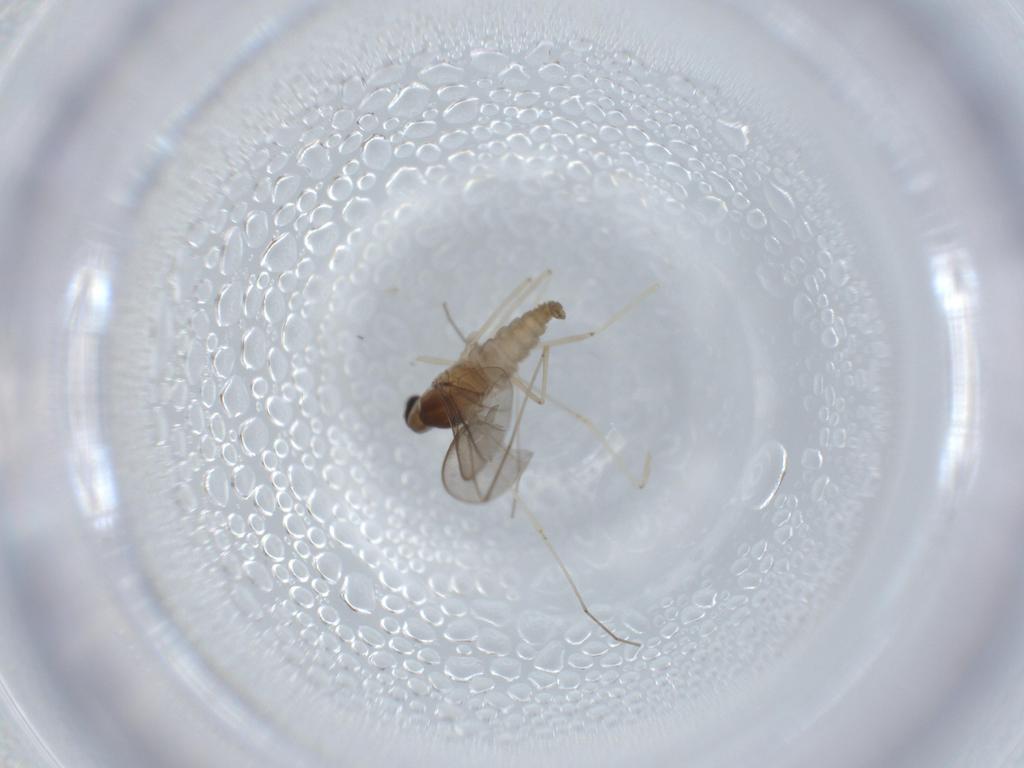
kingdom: Animalia
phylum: Arthropoda
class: Insecta
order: Diptera
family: Cecidomyiidae
